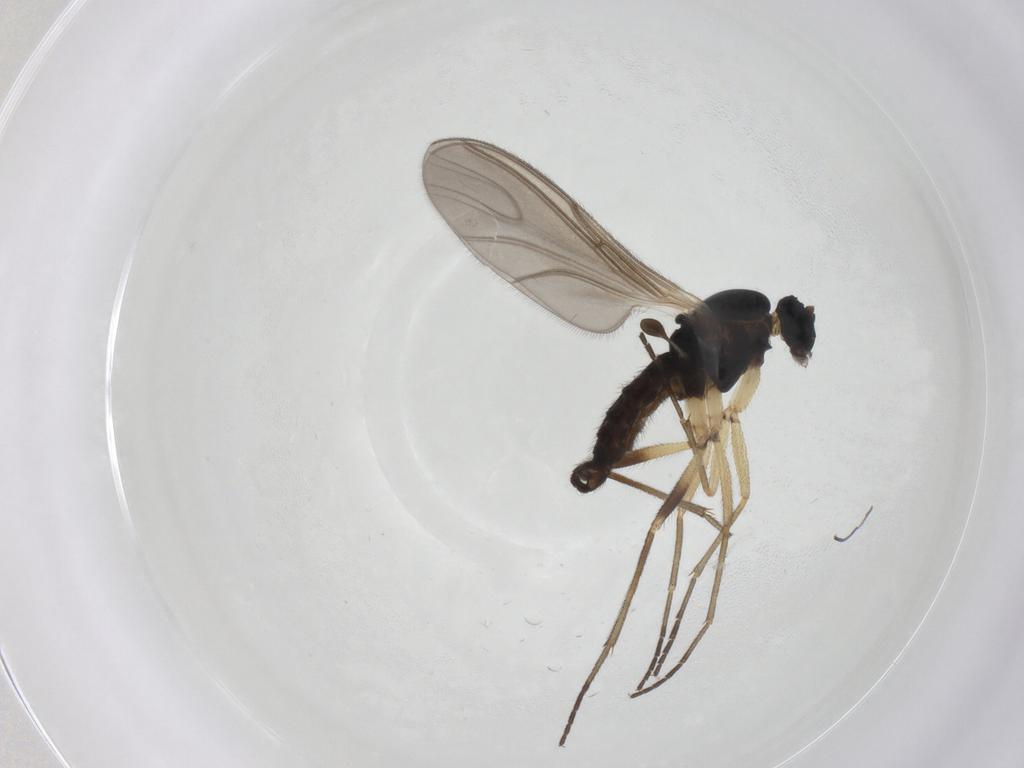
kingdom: Animalia
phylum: Arthropoda
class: Insecta
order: Diptera
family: Sciaridae
